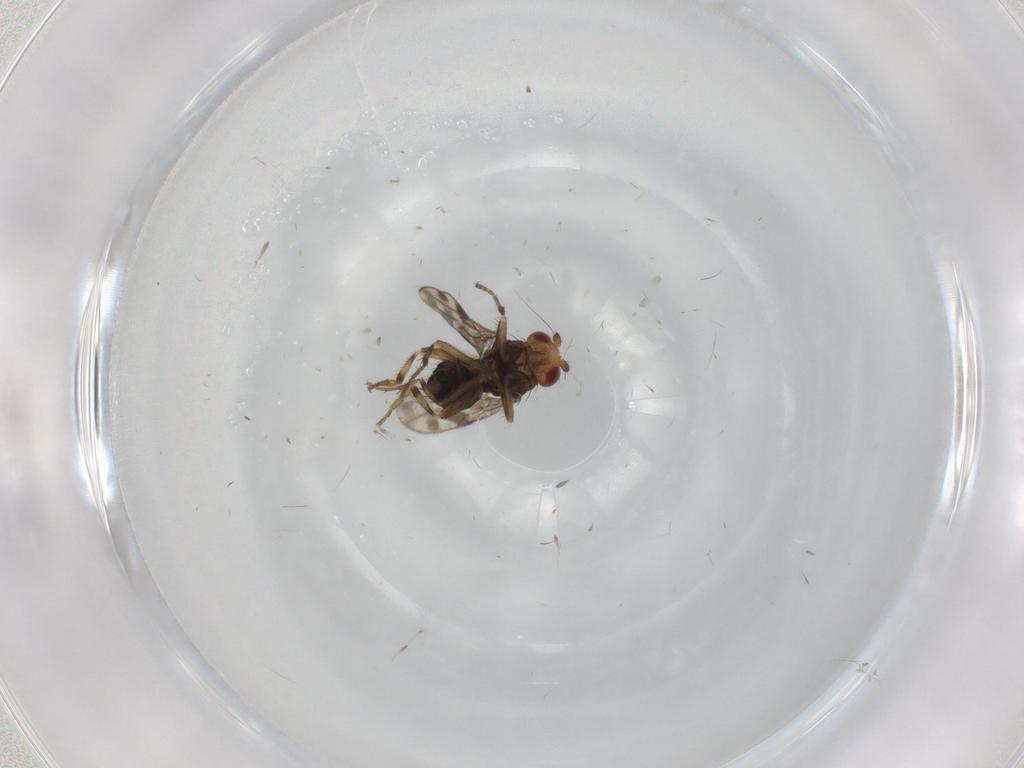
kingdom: Animalia
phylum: Arthropoda
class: Insecta
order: Diptera
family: Sphaeroceridae
